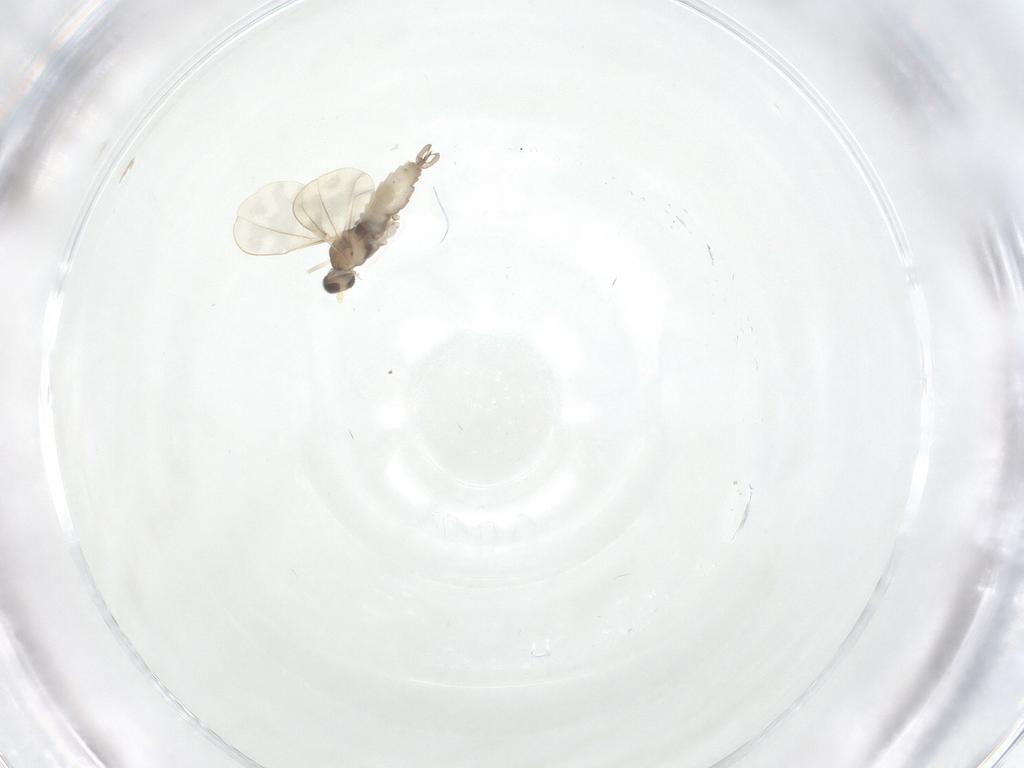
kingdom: Animalia
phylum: Arthropoda
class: Insecta
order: Diptera
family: Cecidomyiidae
